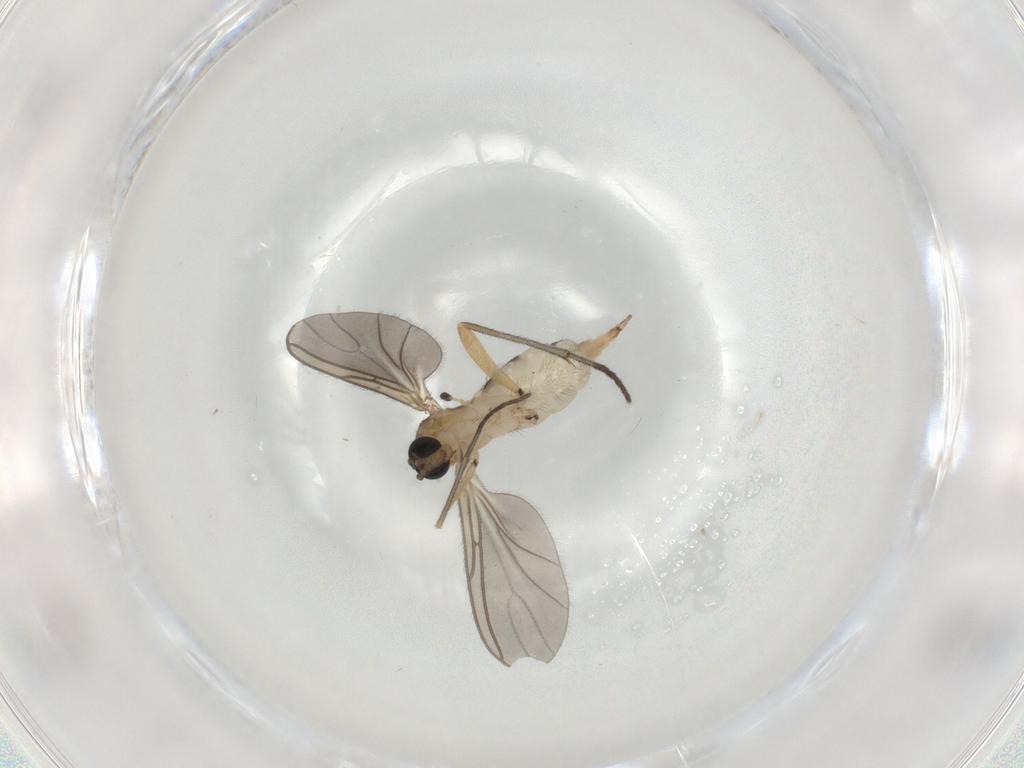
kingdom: Animalia
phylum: Arthropoda
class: Insecta
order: Diptera
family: Sciaridae
